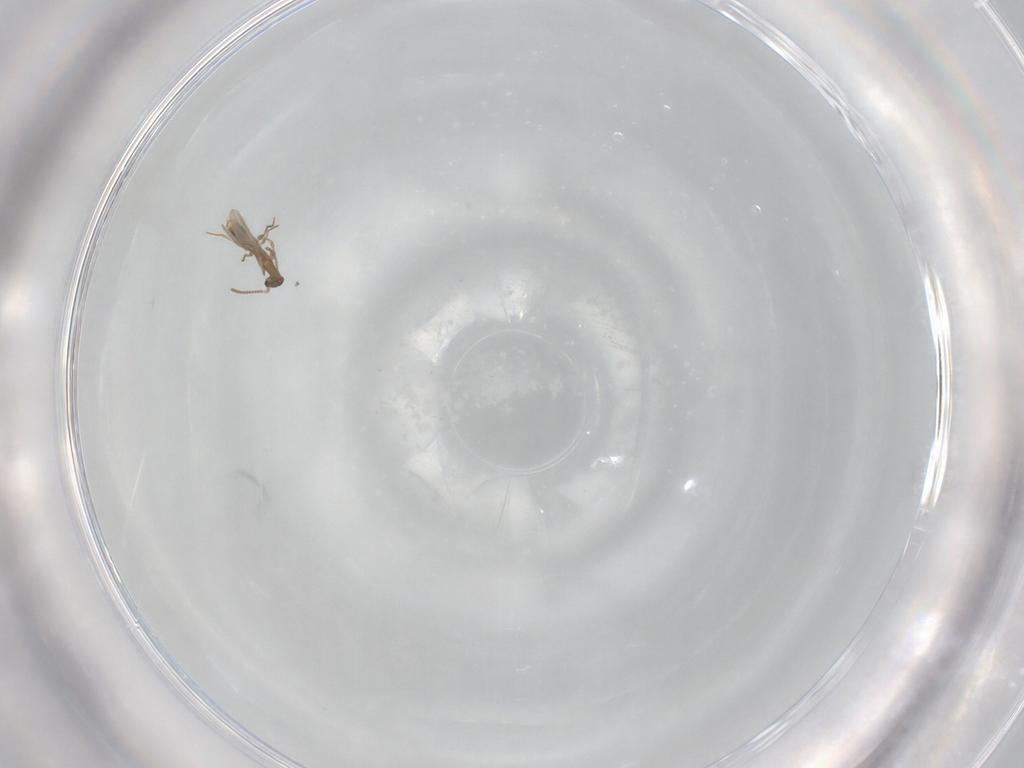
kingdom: Animalia
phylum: Arthropoda
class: Insecta
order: Hymenoptera
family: Formicidae
